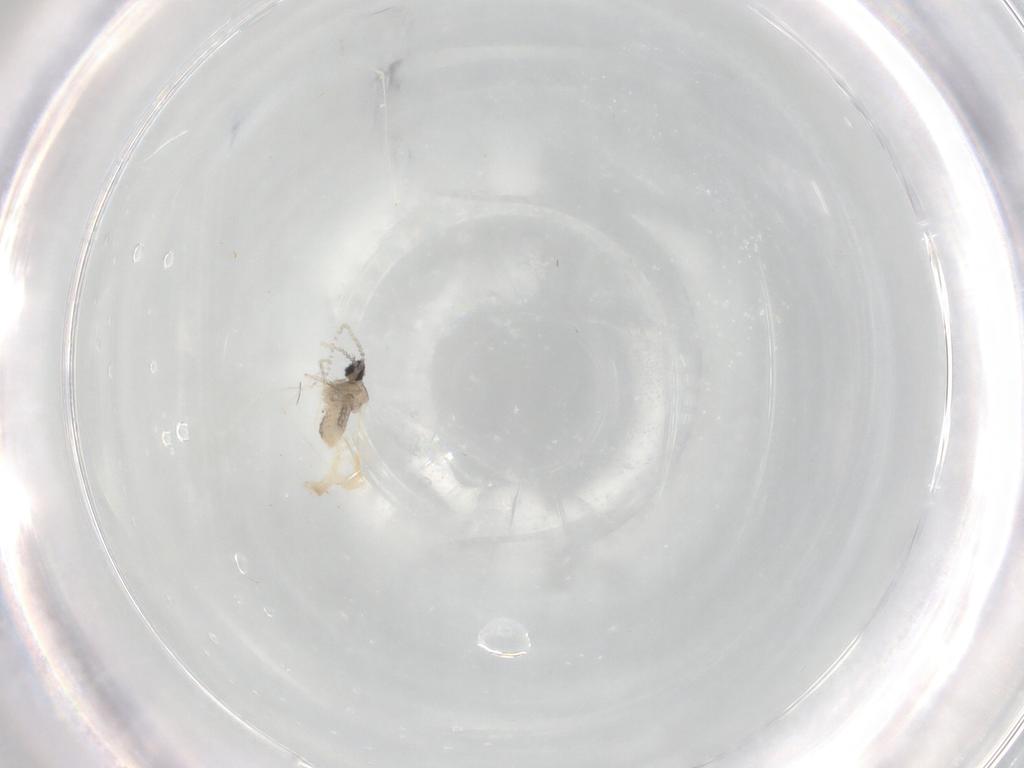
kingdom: Animalia
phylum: Arthropoda
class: Insecta
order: Diptera
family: Cecidomyiidae
